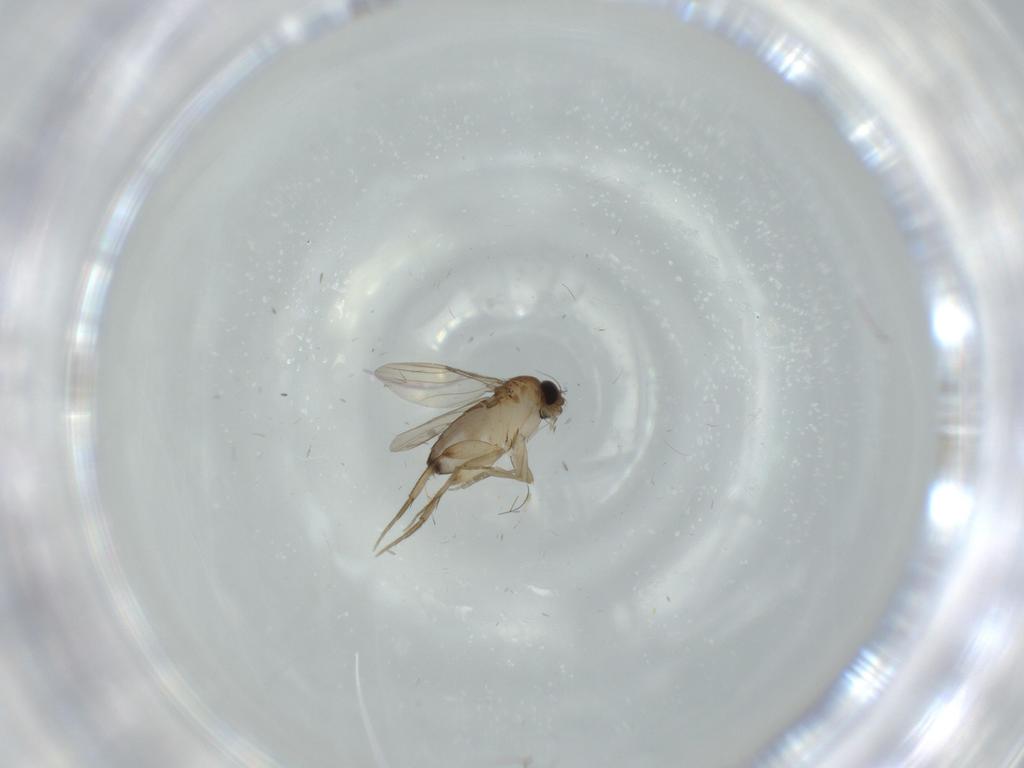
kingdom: Animalia
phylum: Arthropoda
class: Insecta
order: Diptera
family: Phoridae
